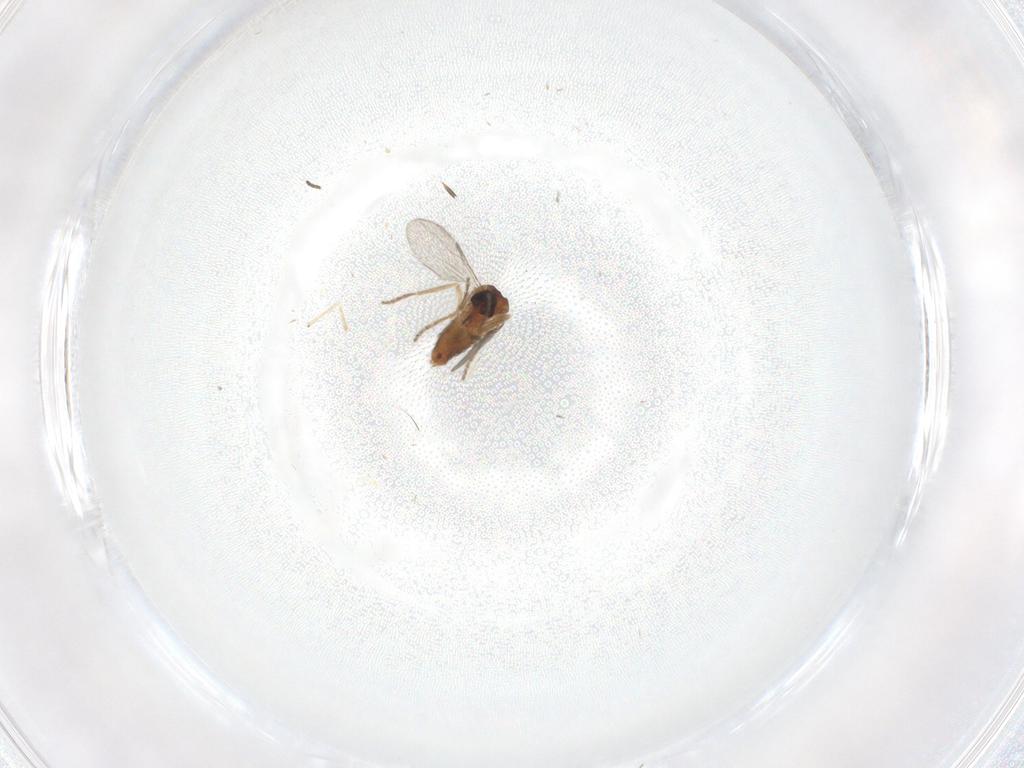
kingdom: Animalia
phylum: Arthropoda
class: Insecta
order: Diptera
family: Ceratopogonidae
